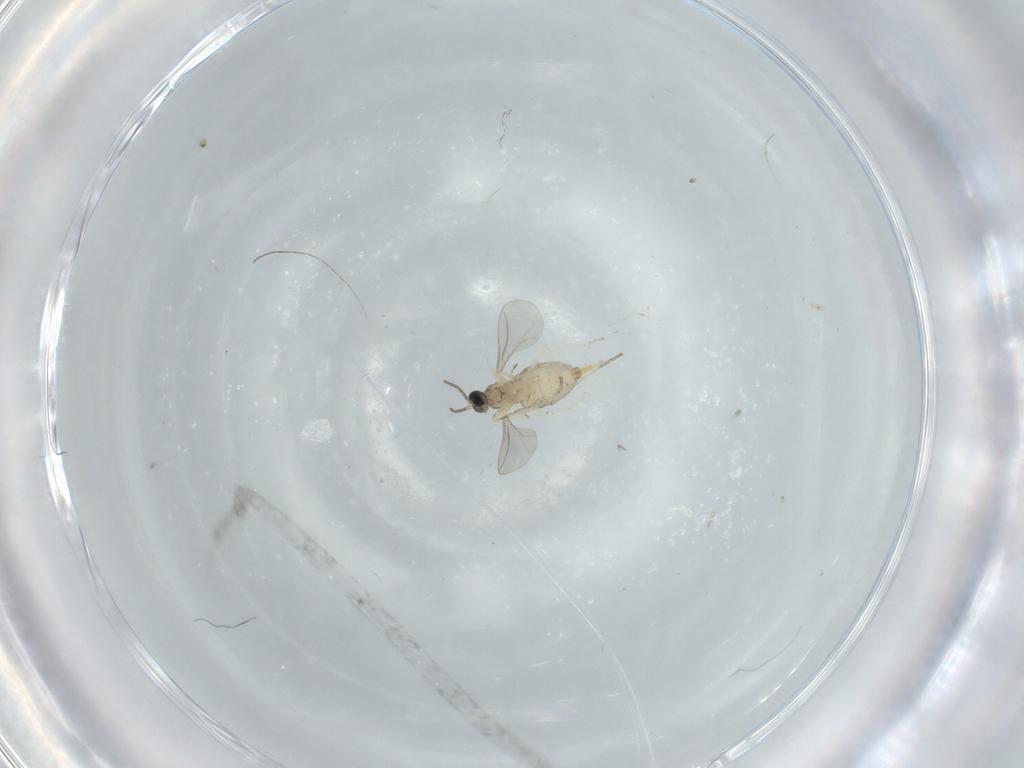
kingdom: Animalia
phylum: Arthropoda
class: Insecta
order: Diptera
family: Cecidomyiidae
